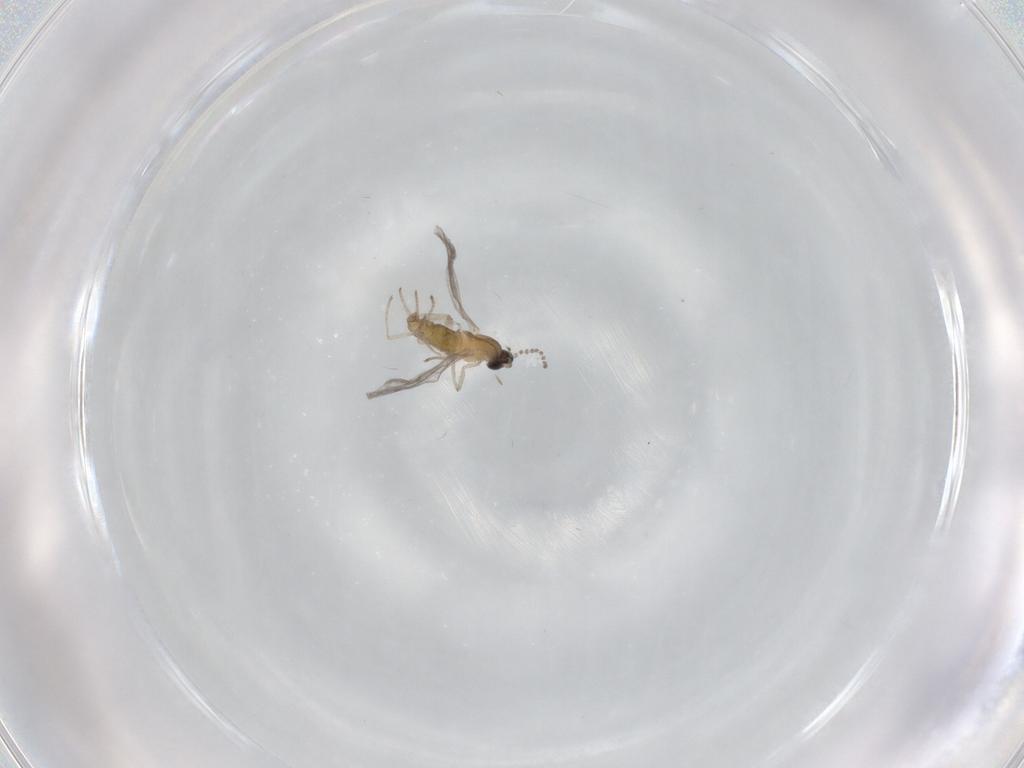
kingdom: Animalia
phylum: Arthropoda
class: Insecta
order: Diptera
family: Cecidomyiidae
